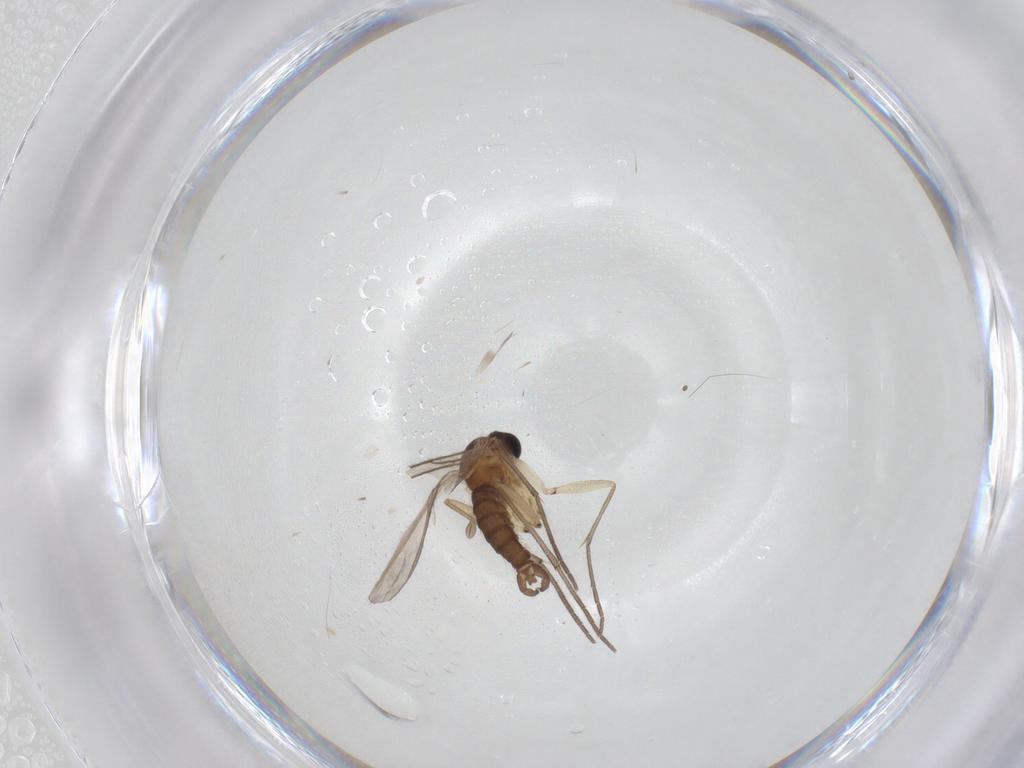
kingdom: Animalia
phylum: Arthropoda
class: Insecta
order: Diptera
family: Sciaridae
